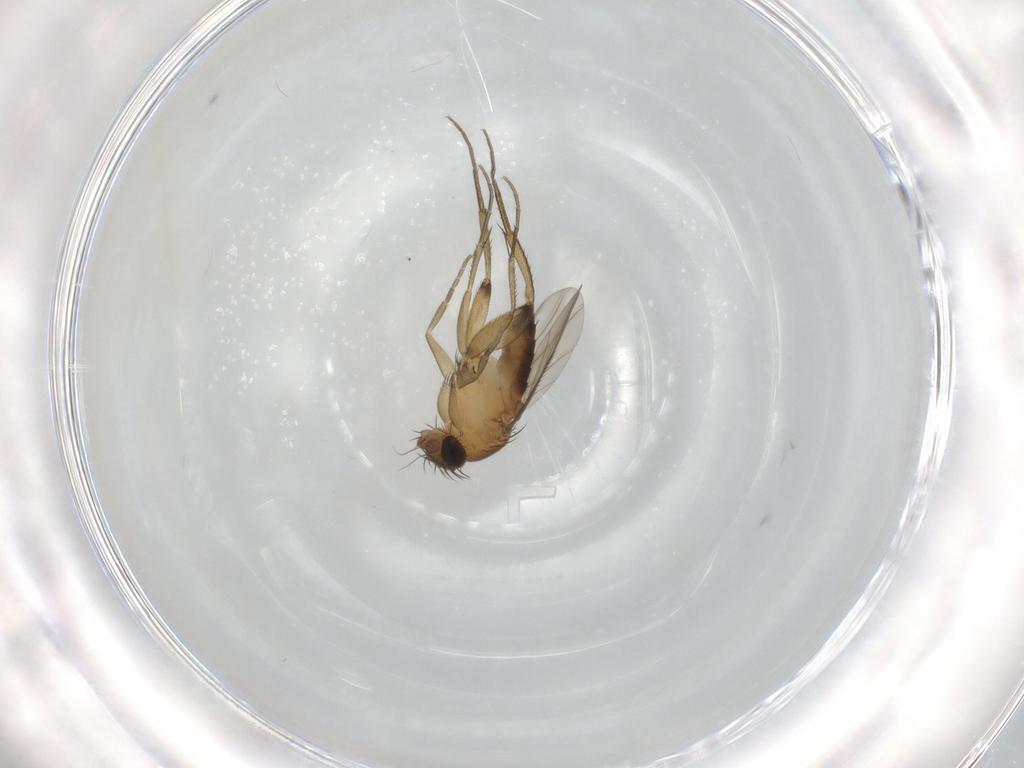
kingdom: Animalia
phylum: Arthropoda
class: Insecta
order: Diptera
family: Phoridae
